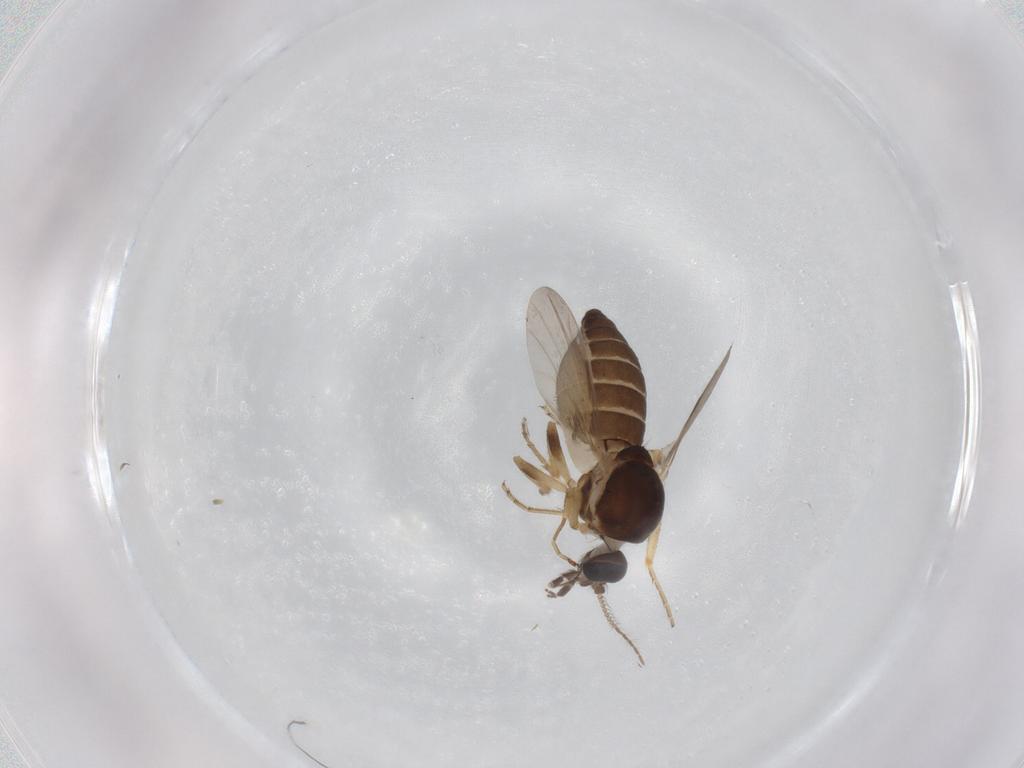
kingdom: Animalia
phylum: Arthropoda
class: Insecta
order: Diptera
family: Ceratopogonidae
